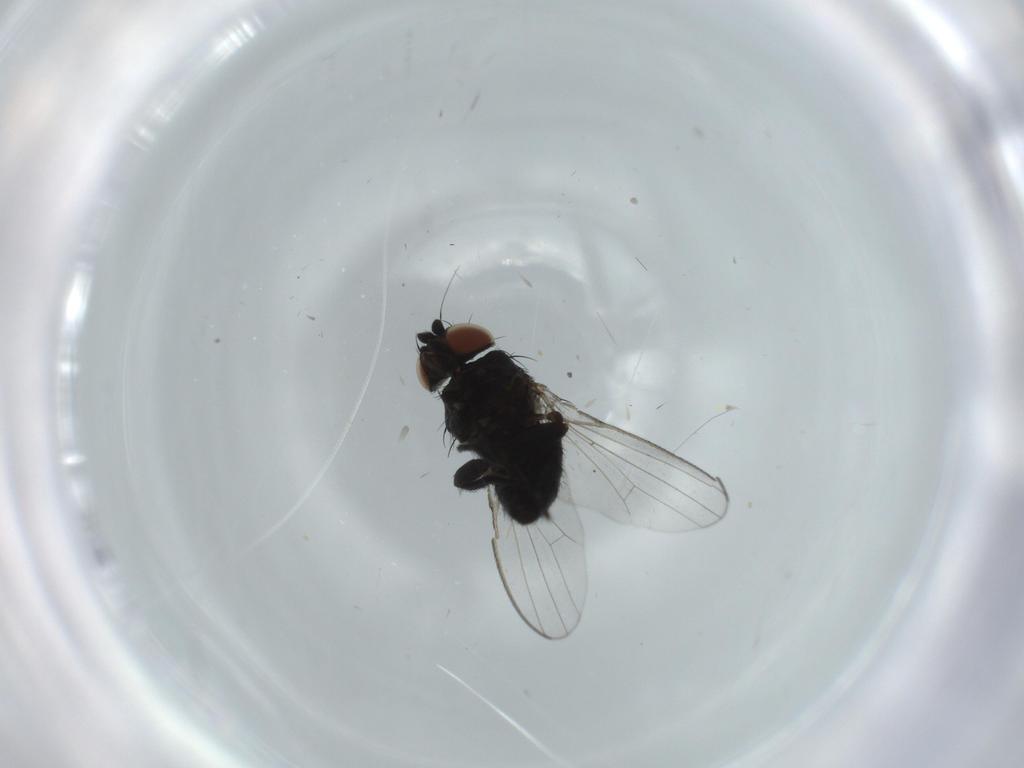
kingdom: Animalia
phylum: Arthropoda
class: Insecta
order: Diptera
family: Milichiidae
